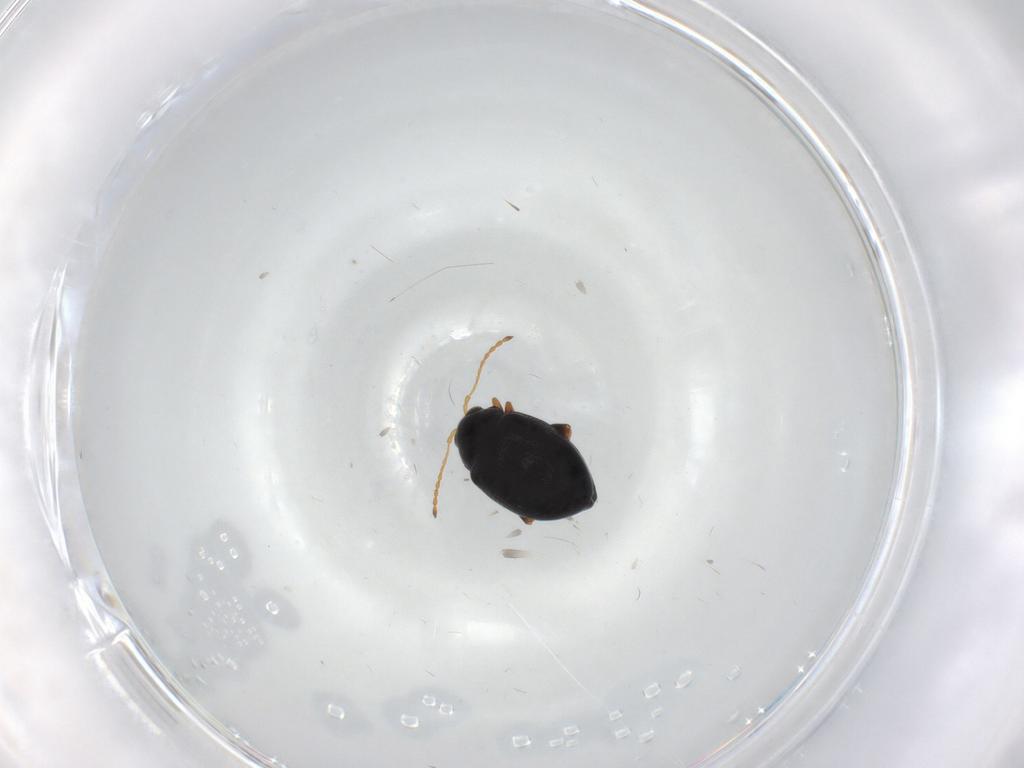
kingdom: Animalia
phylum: Arthropoda
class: Insecta
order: Coleoptera
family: Chrysomelidae
